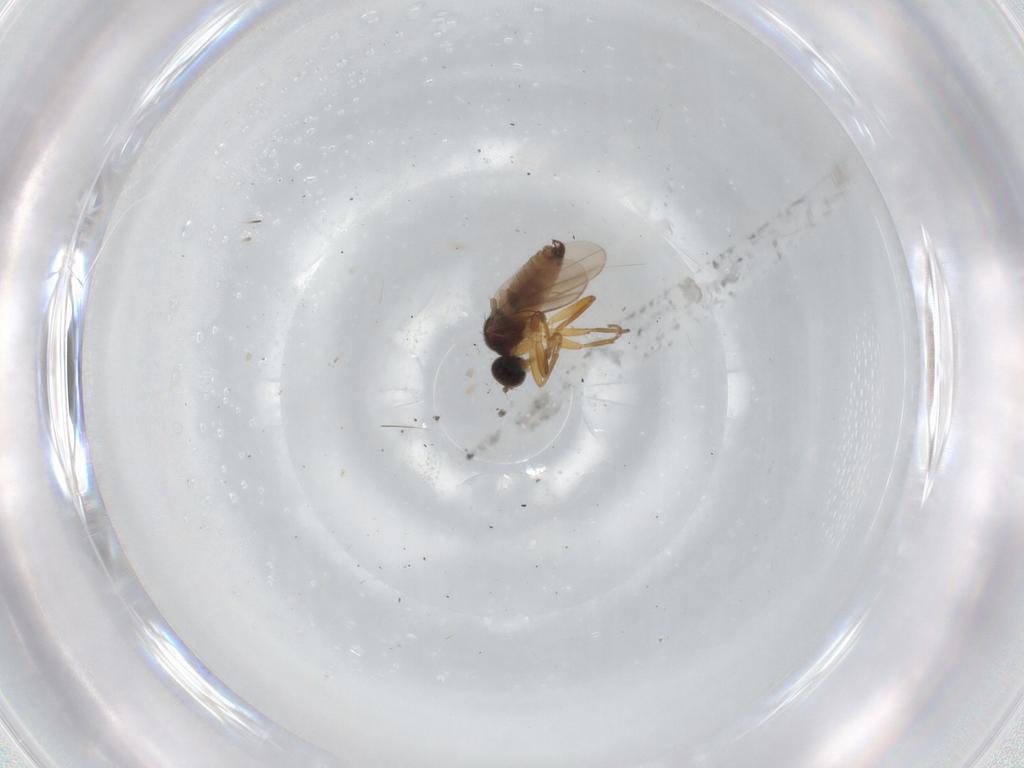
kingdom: Animalia
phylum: Arthropoda
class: Insecta
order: Diptera
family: Hybotidae
